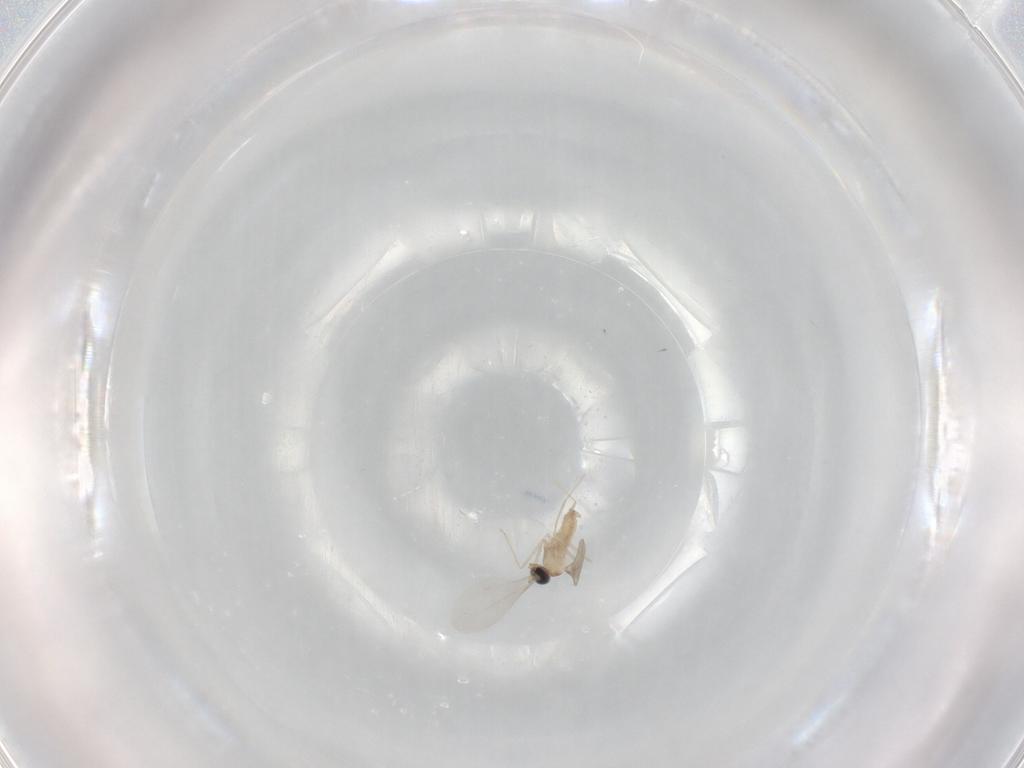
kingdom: Animalia
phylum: Arthropoda
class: Insecta
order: Diptera
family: Cecidomyiidae
